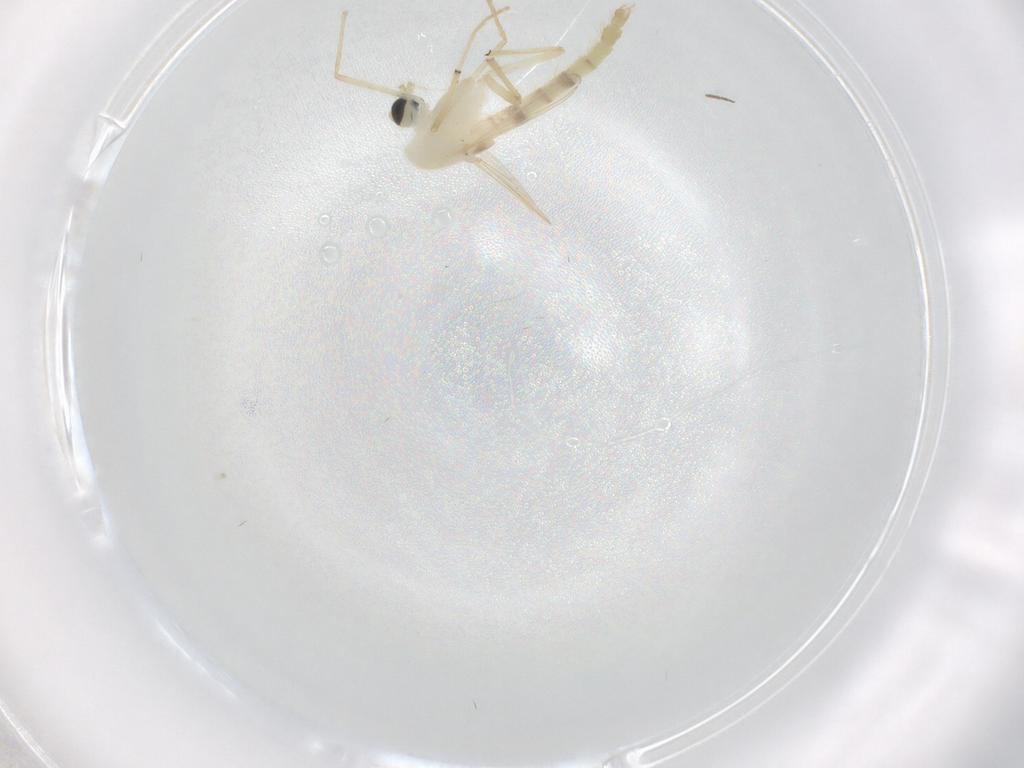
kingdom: Animalia
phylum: Arthropoda
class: Insecta
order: Diptera
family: Chironomidae
